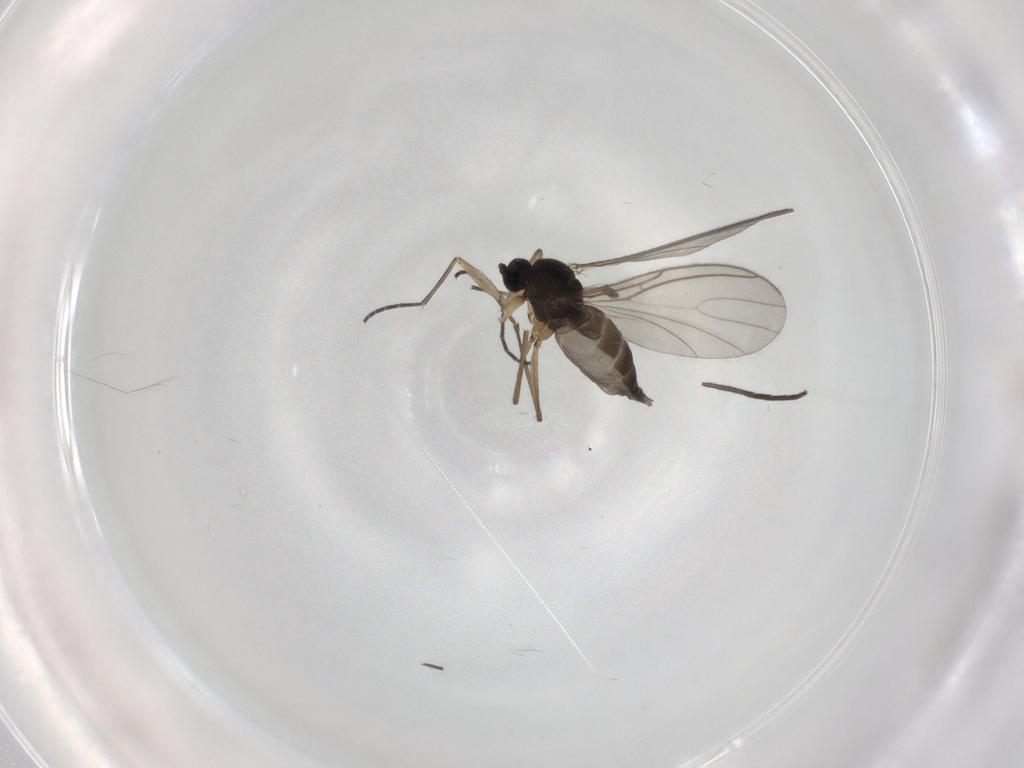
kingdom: Animalia
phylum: Arthropoda
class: Insecta
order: Diptera
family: Sciaridae
